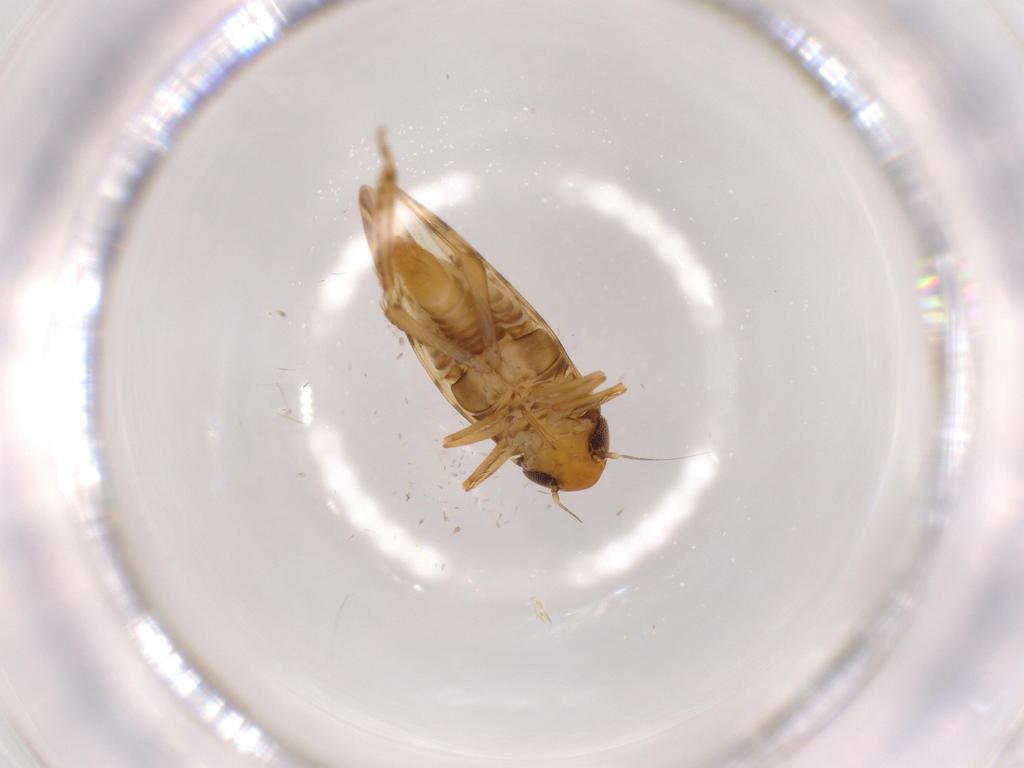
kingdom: Animalia
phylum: Arthropoda
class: Insecta
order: Hemiptera
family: Cicadellidae
